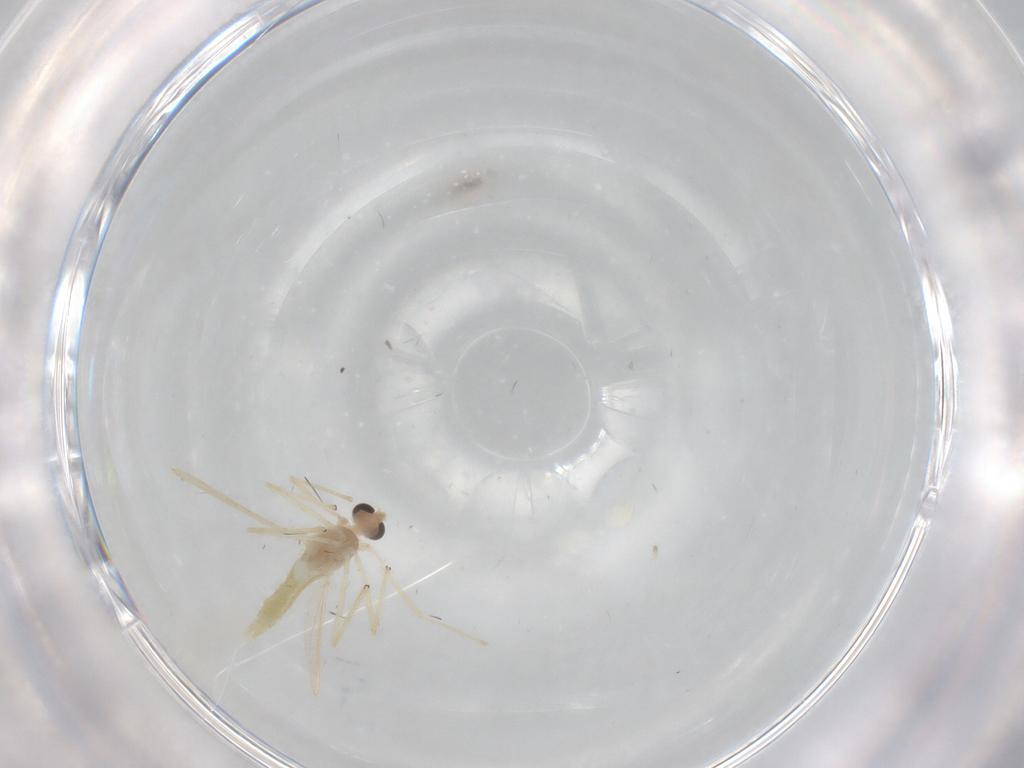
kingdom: Animalia
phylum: Arthropoda
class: Insecta
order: Diptera
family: Chironomidae
